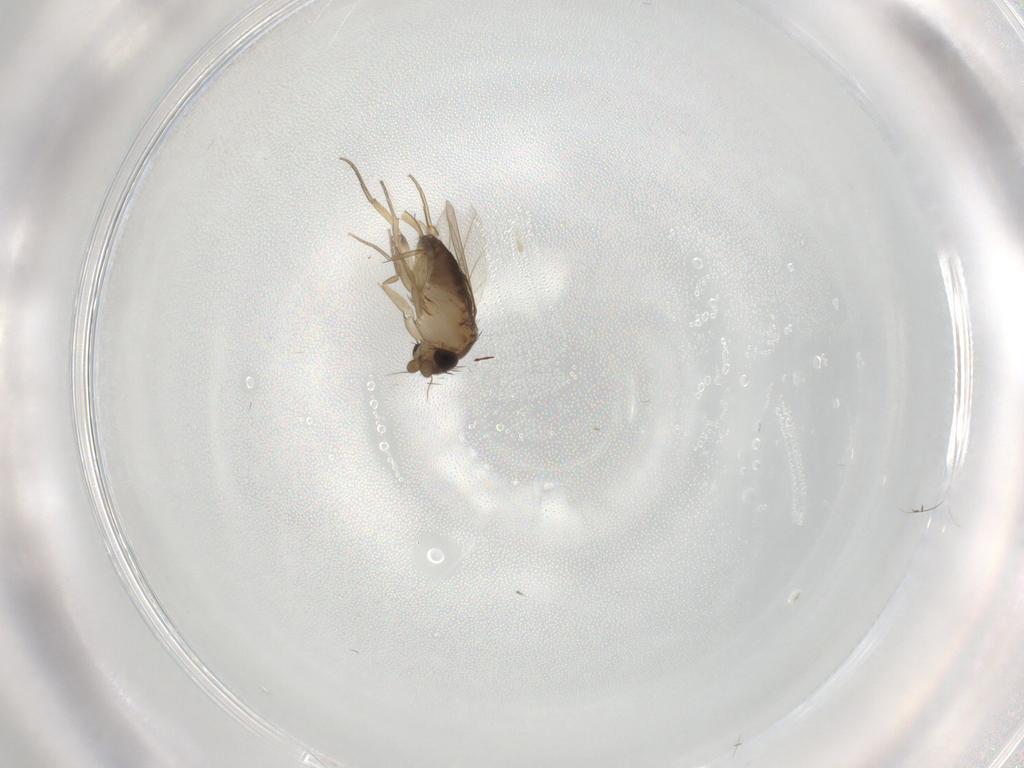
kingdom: Animalia
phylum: Arthropoda
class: Insecta
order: Diptera
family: Phoridae
